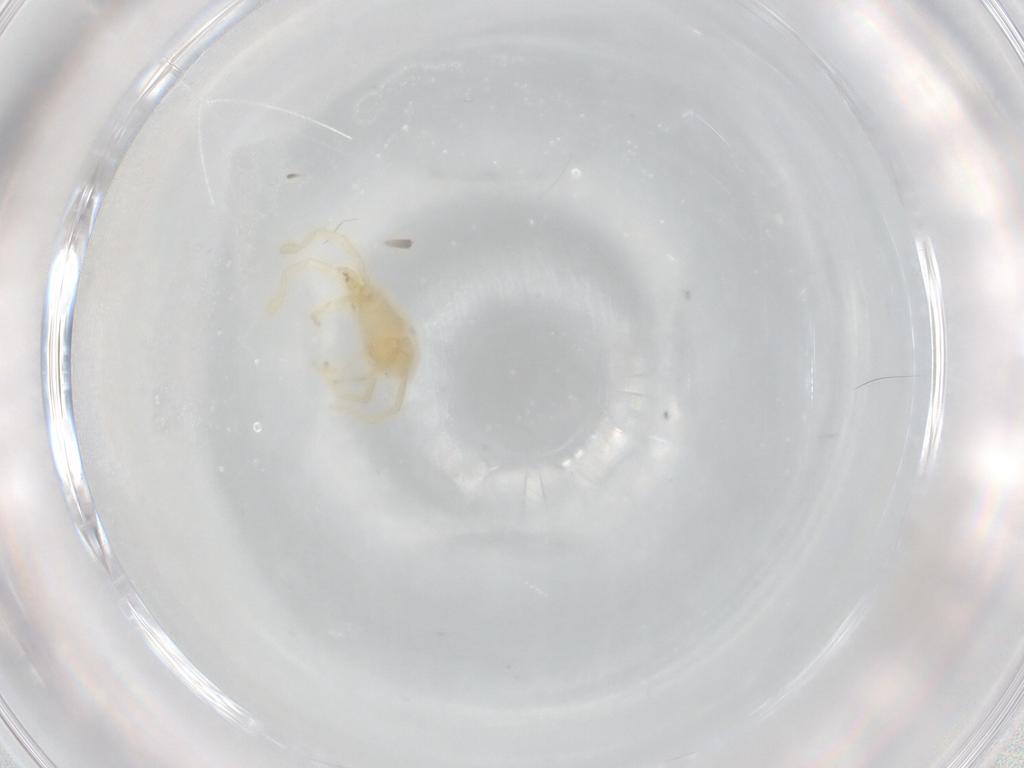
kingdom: Animalia
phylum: Arthropoda
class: Arachnida
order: Trombidiformes
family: Erythraeidae
